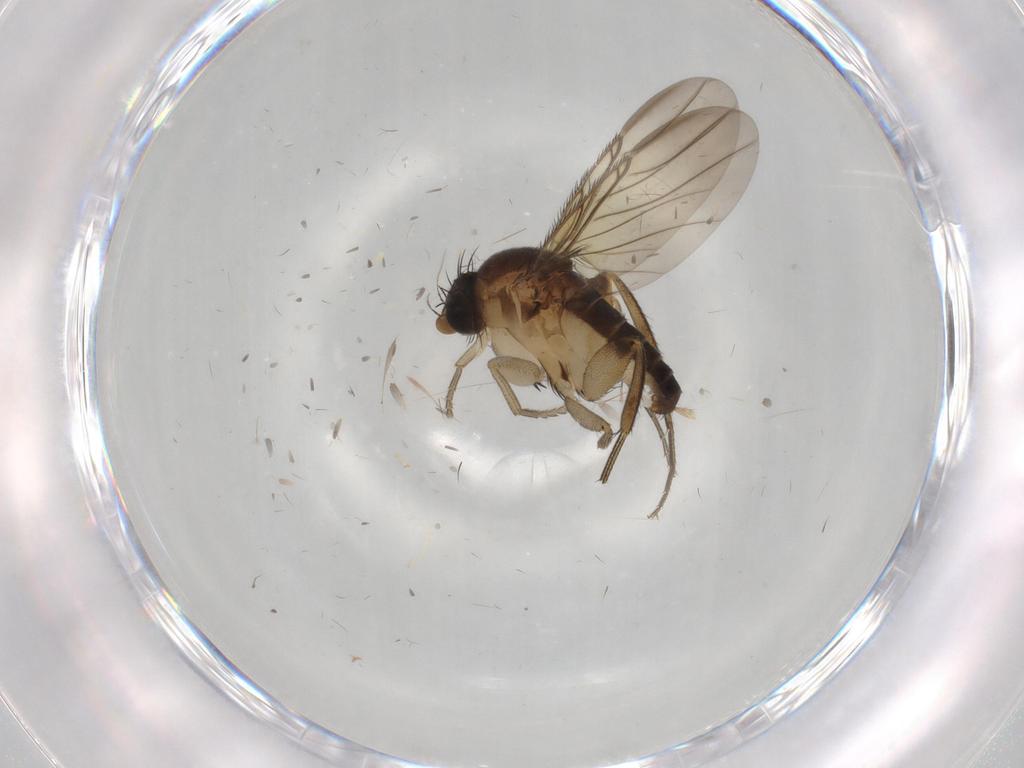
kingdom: Animalia
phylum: Arthropoda
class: Insecta
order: Diptera
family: Phoridae
